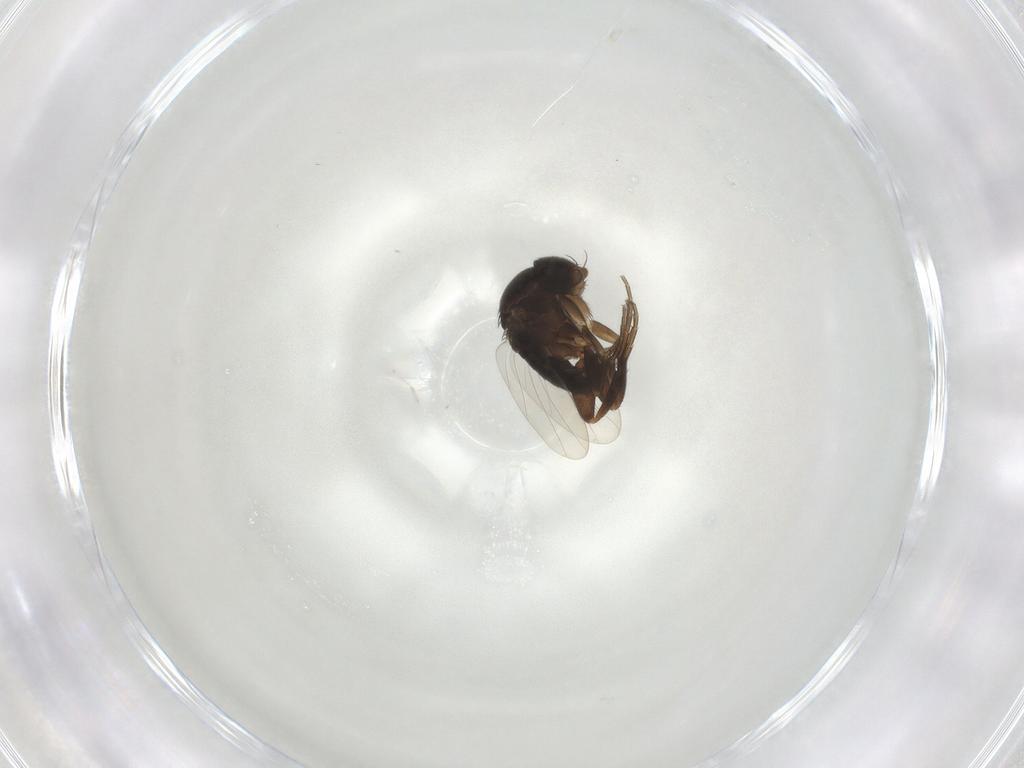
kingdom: Animalia
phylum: Arthropoda
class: Insecta
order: Diptera
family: Phoridae
